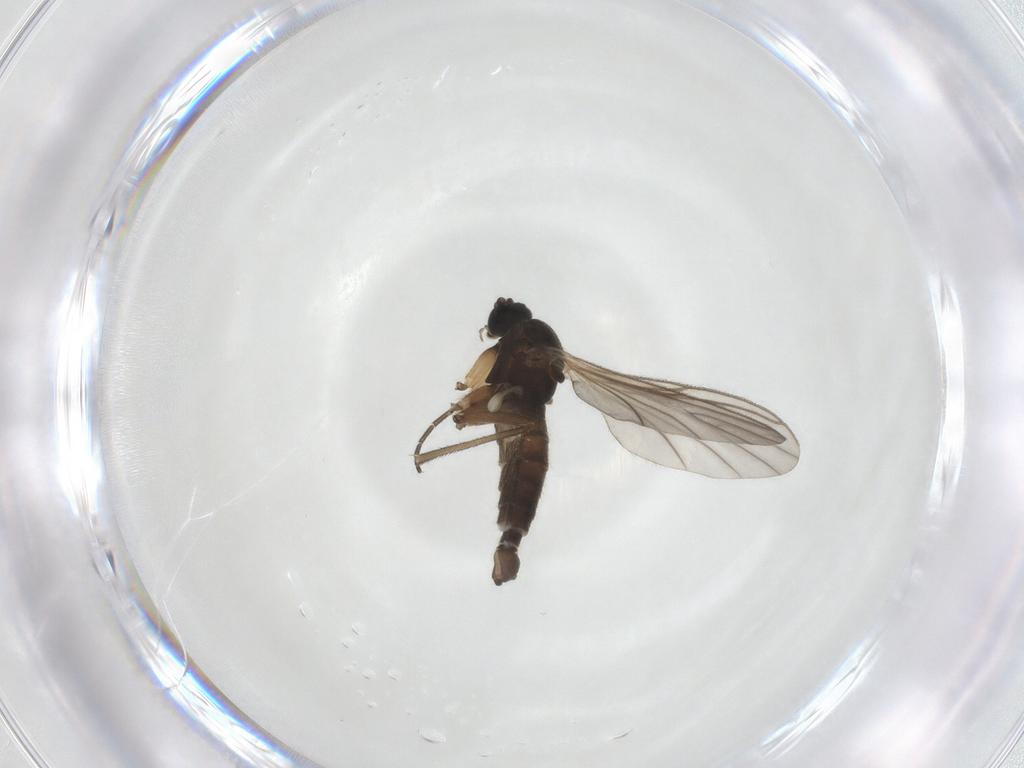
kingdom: Animalia
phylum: Arthropoda
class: Insecta
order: Diptera
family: Sciaridae
